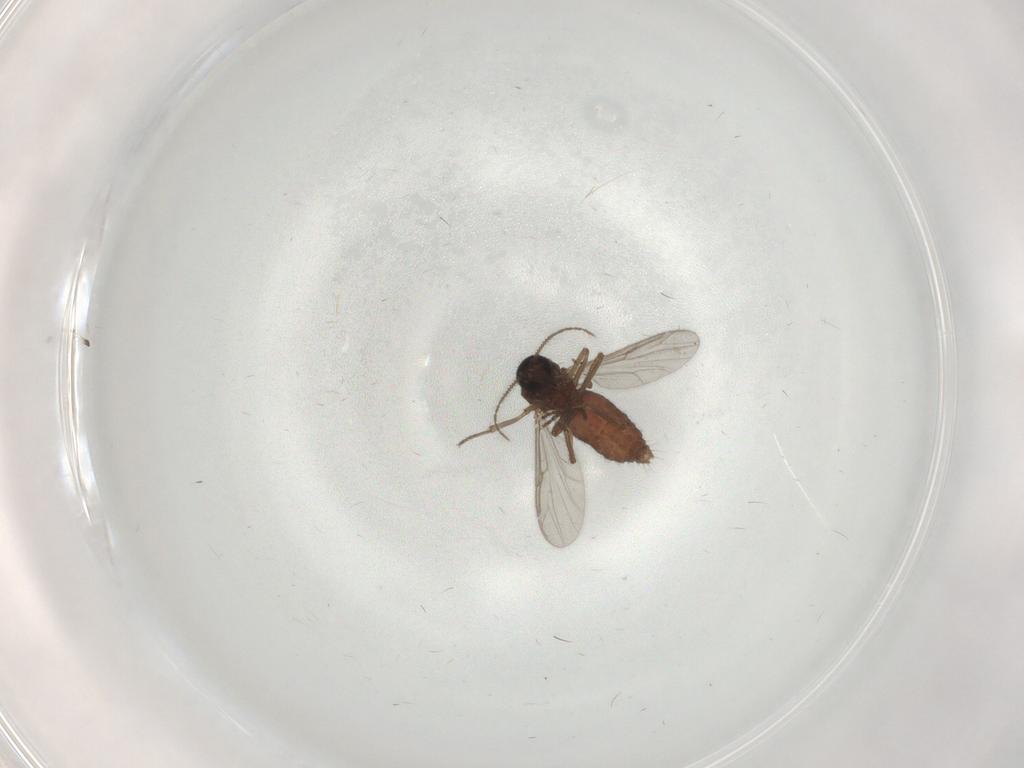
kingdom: Animalia
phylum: Arthropoda
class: Insecta
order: Diptera
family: Ceratopogonidae
